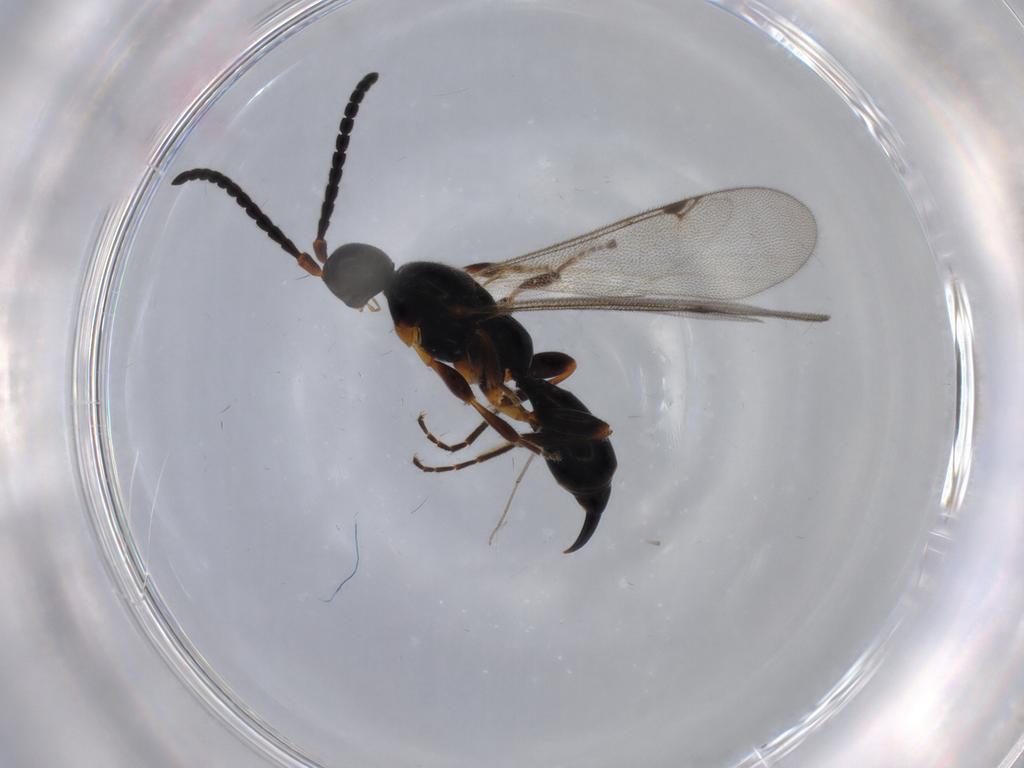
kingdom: Animalia
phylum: Arthropoda
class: Insecta
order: Hymenoptera
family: Proctotrupidae
